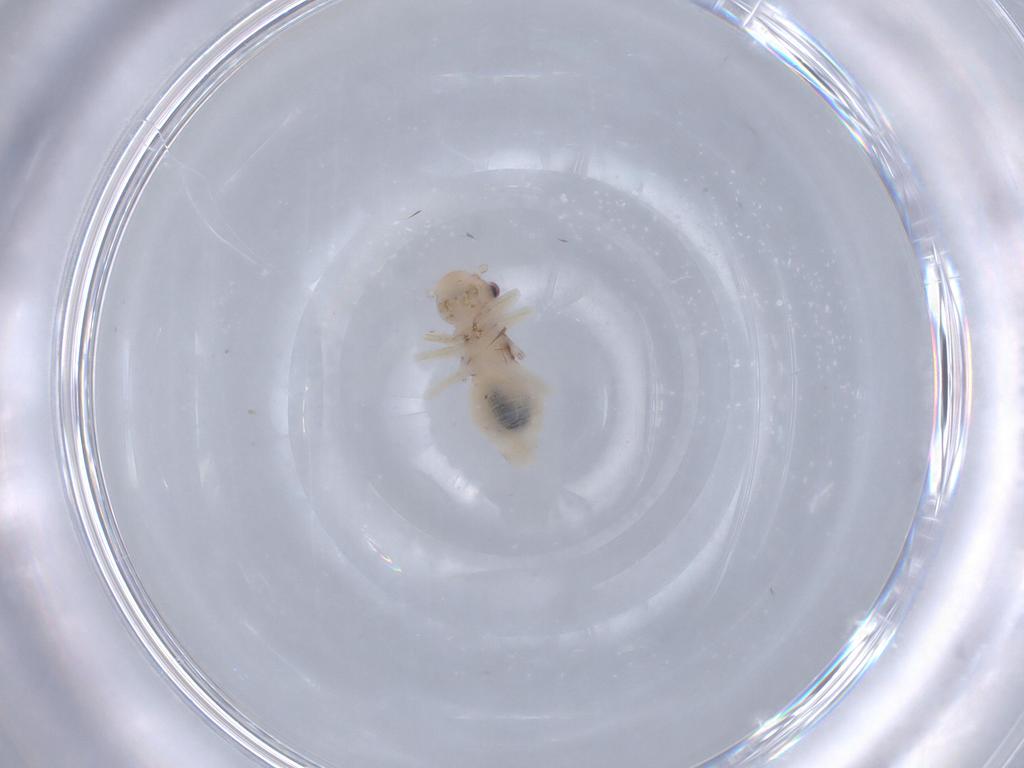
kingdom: Animalia
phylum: Arthropoda
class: Insecta
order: Psocodea
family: Amphipsocidae
